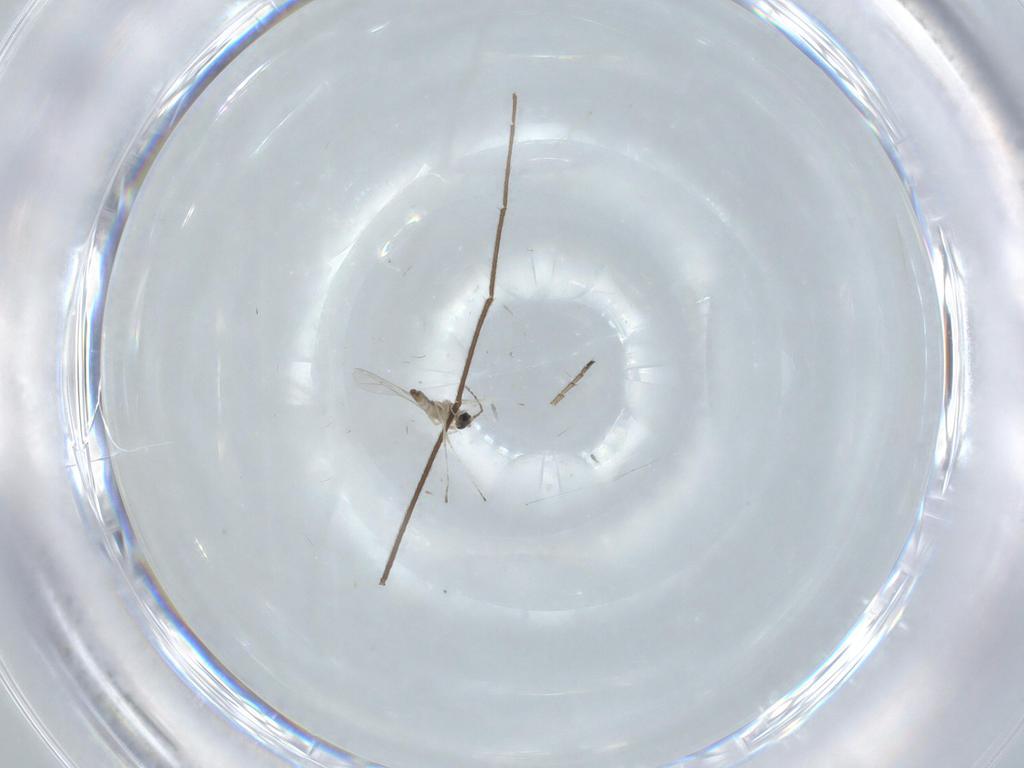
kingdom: Animalia
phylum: Arthropoda
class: Insecta
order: Diptera
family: Cecidomyiidae
